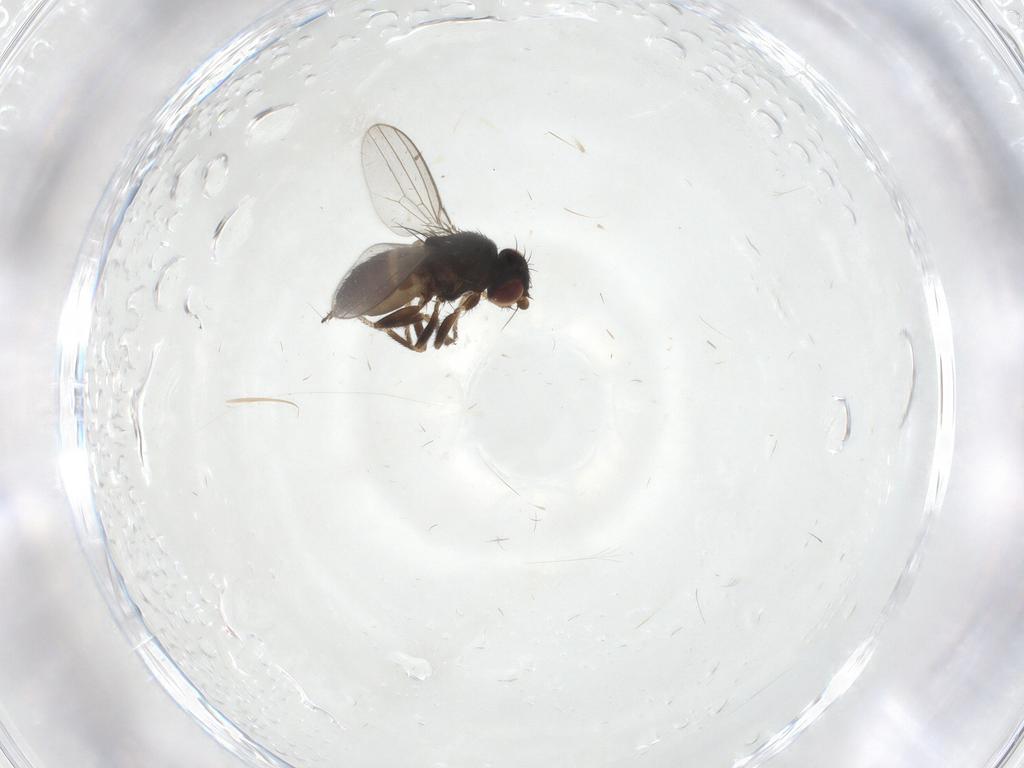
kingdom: Animalia
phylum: Arthropoda
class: Insecta
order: Diptera
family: Milichiidae
